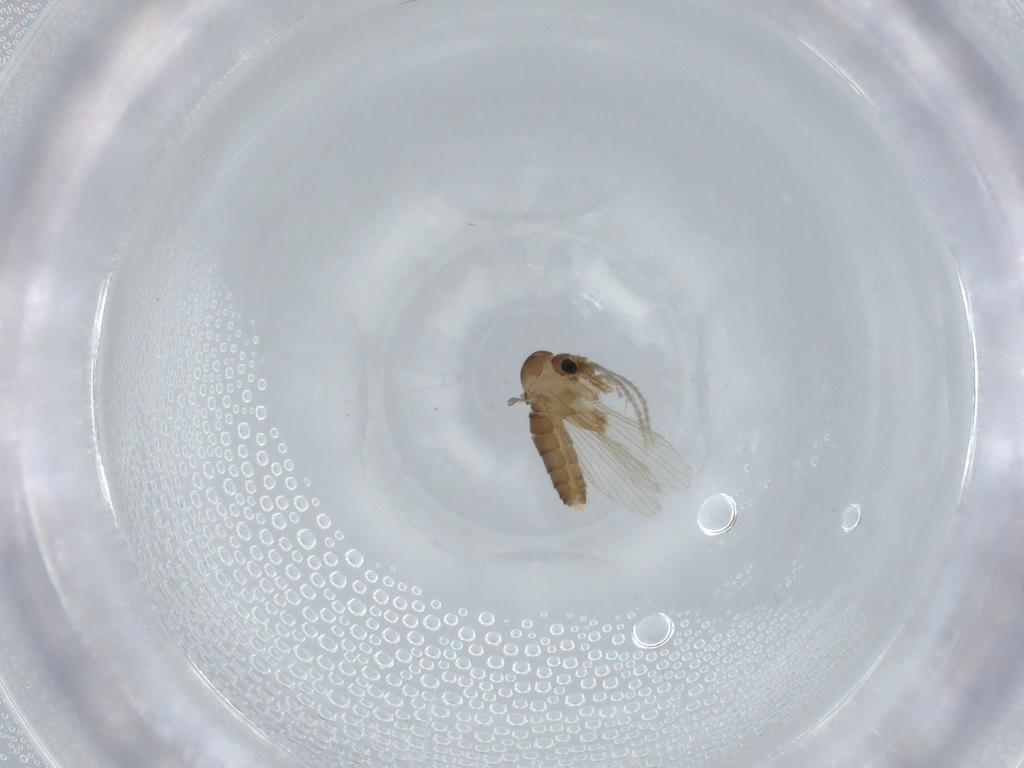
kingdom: Animalia
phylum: Arthropoda
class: Insecta
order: Diptera
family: Psychodidae
